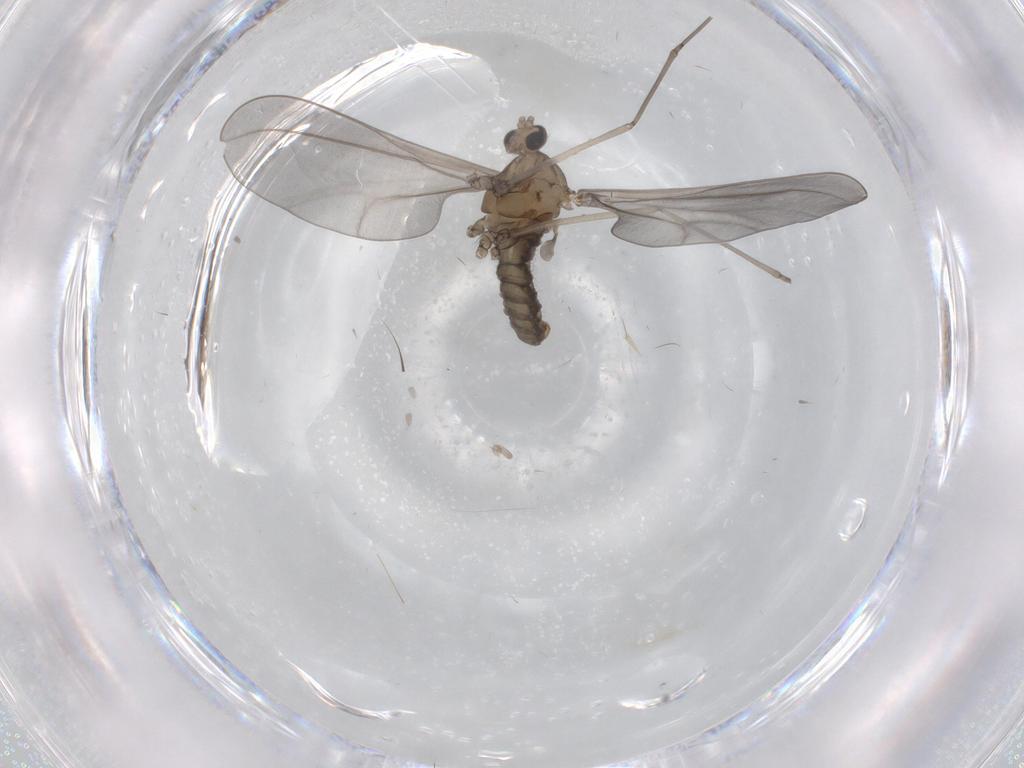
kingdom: Animalia
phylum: Arthropoda
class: Insecta
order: Diptera
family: Cecidomyiidae
